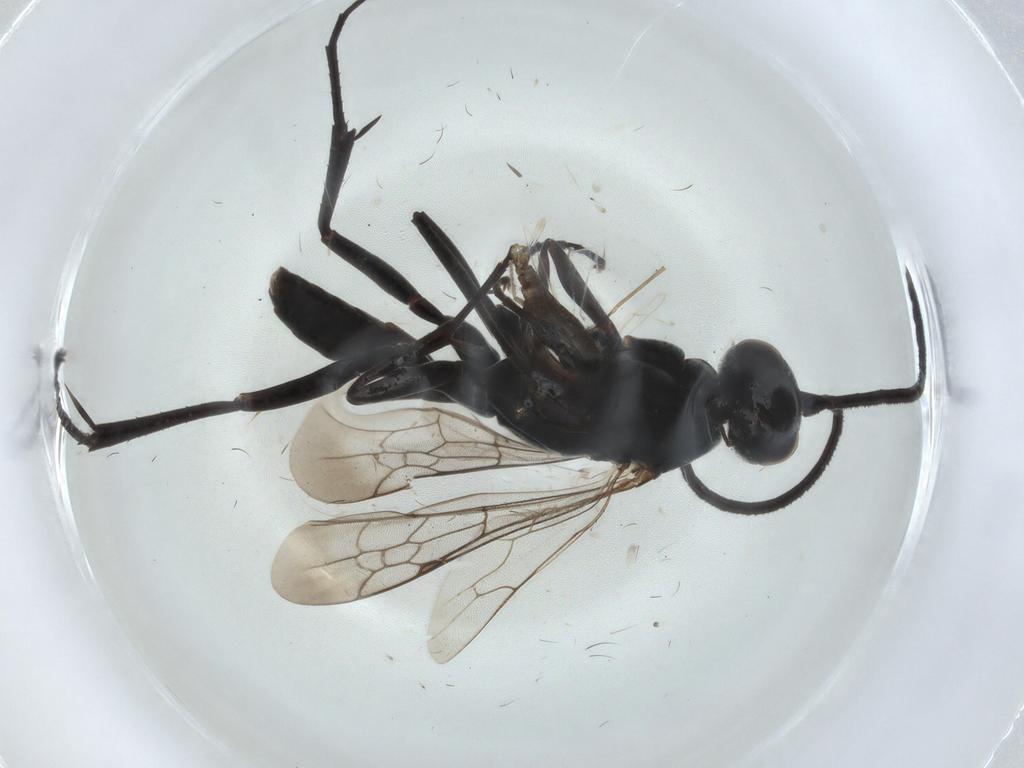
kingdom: Animalia
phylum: Arthropoda
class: Insecta
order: Hymenoptera
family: Pompilidae
